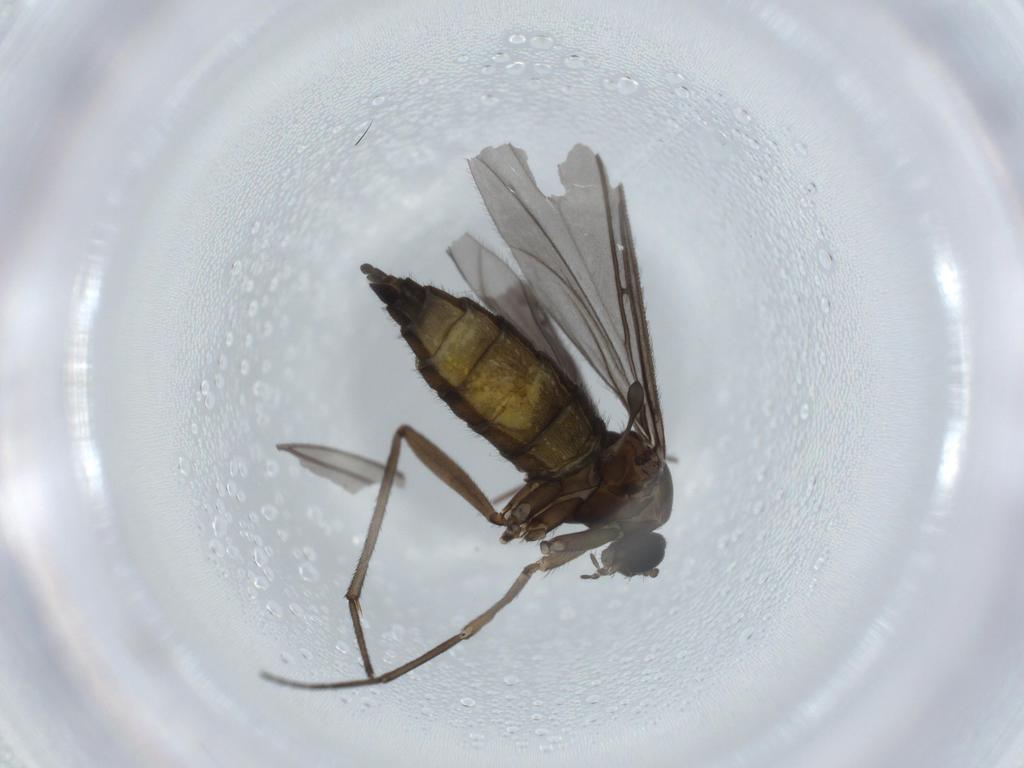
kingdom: Animalia
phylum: Arthropoda
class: Insecta
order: Diptera
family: Sciaridae
